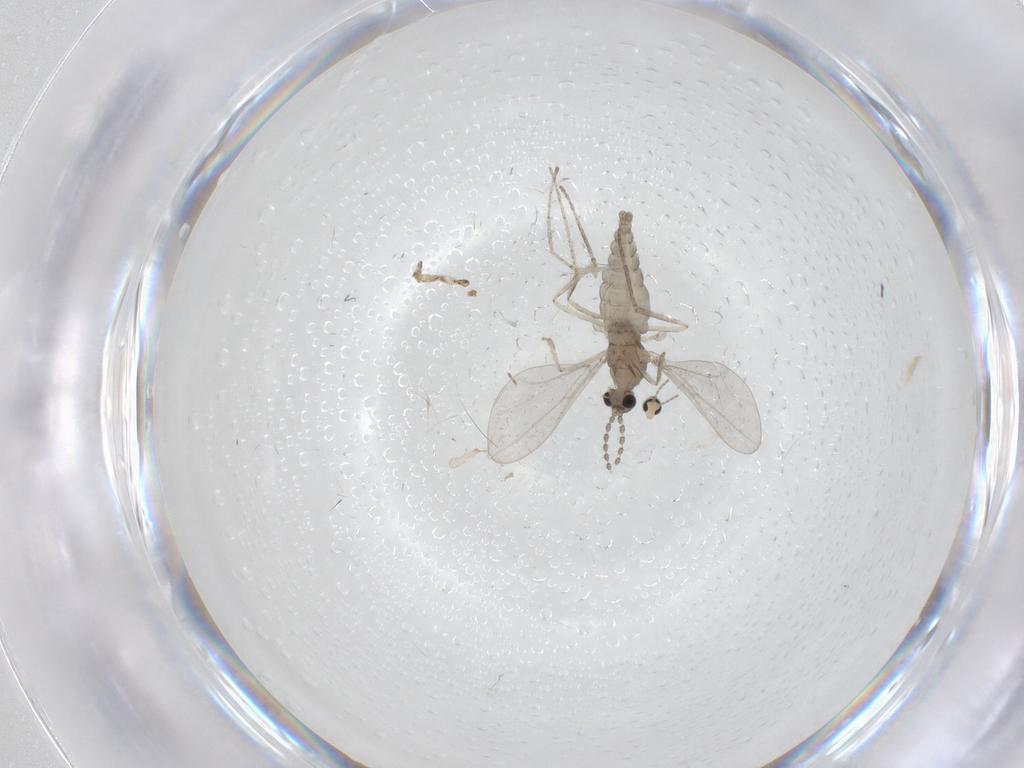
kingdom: Animalia
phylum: Arthropoda
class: Insecta
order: Diptera
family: Cecidomyiidae
